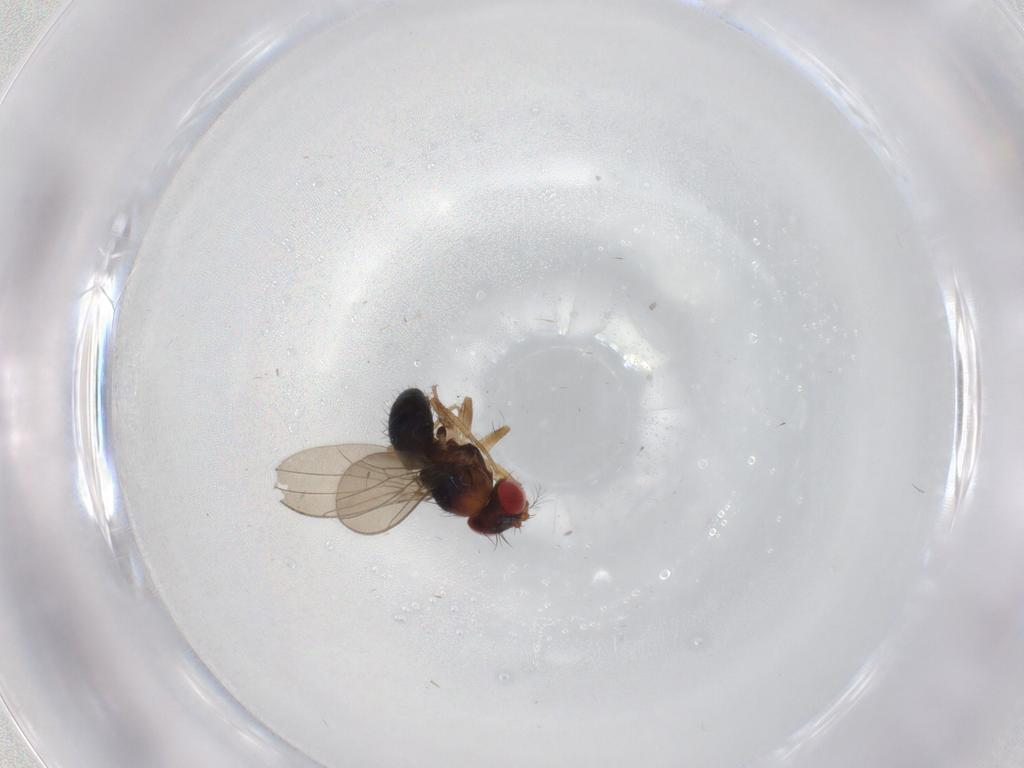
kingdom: Animalia
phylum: Arthropoda
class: Insecta
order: Diptera
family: Drosophilidae
